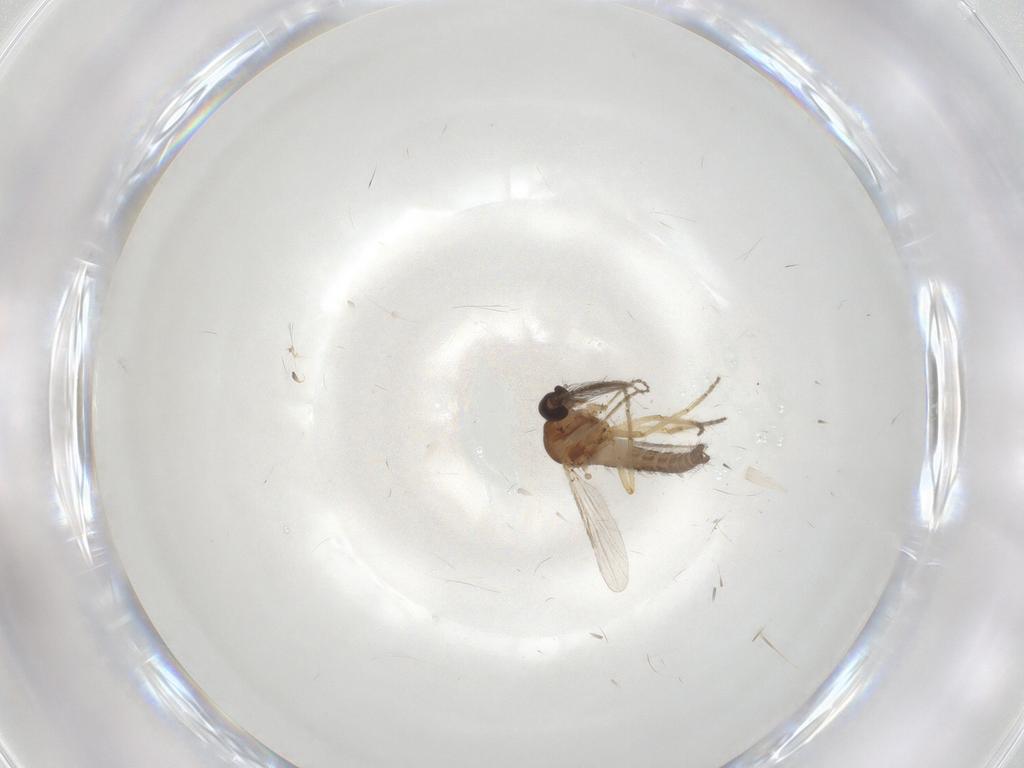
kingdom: Animalia
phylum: Arthropoda
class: Insecta
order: Diptera
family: Ceratopogonidae
